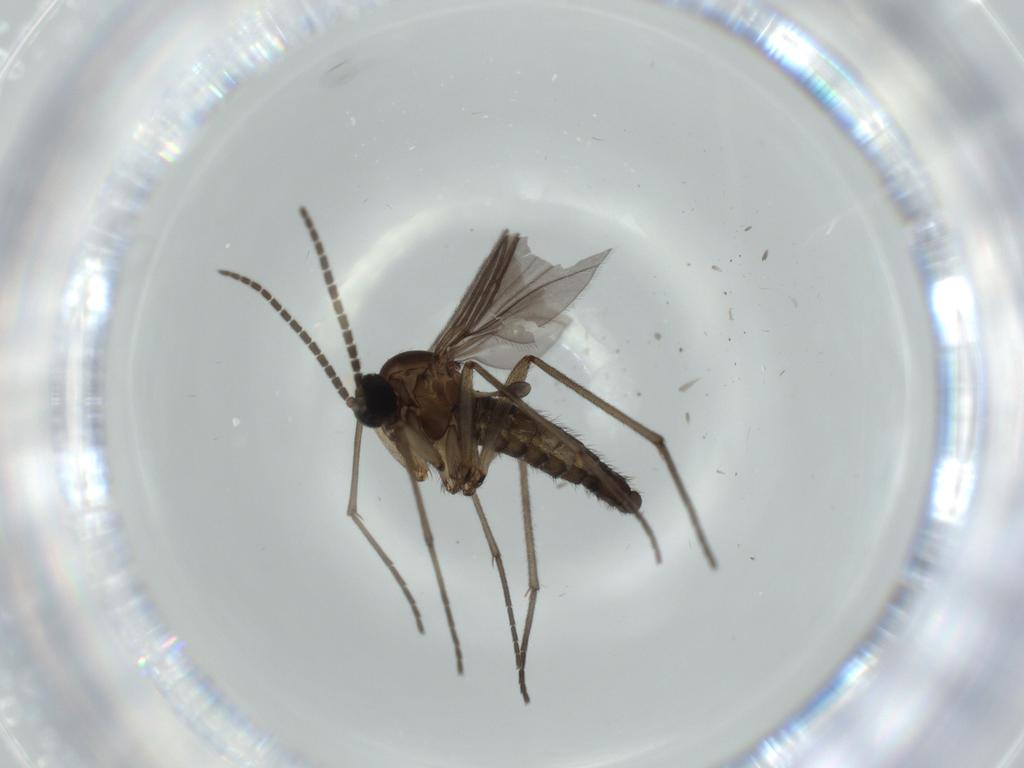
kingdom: Animalia
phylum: Arthropoda
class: Insecta
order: Diptera
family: Sciaridae
